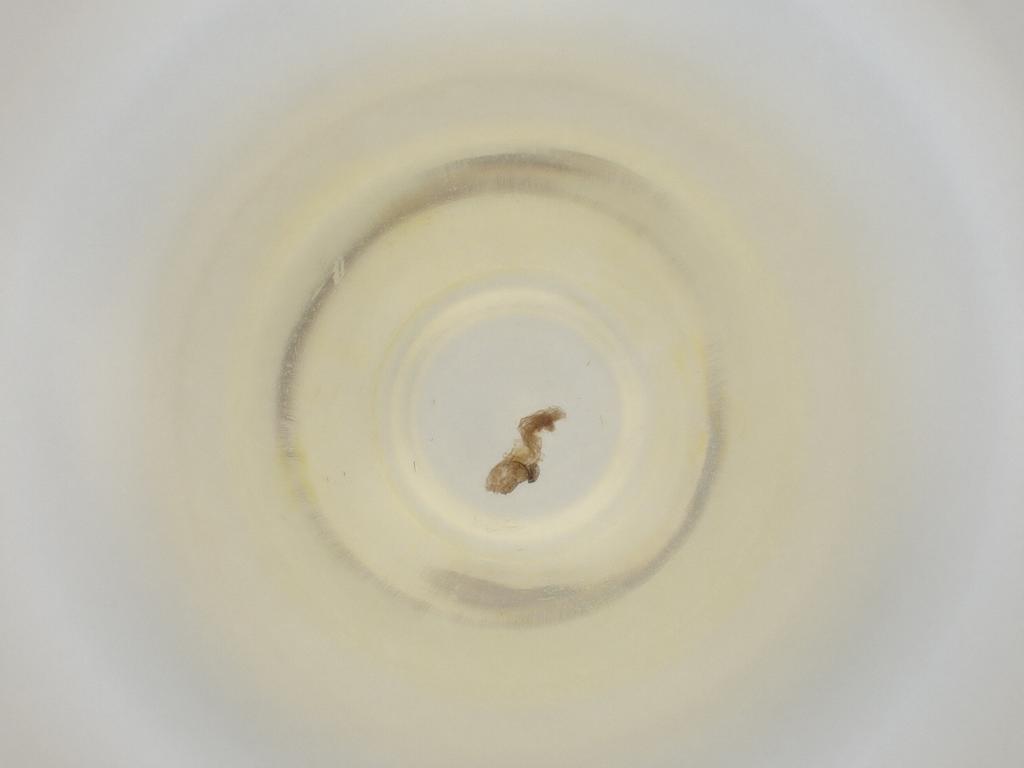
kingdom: Animalia
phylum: Arthropoda
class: Insecta
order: Diptera
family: Cecidomyiidae
